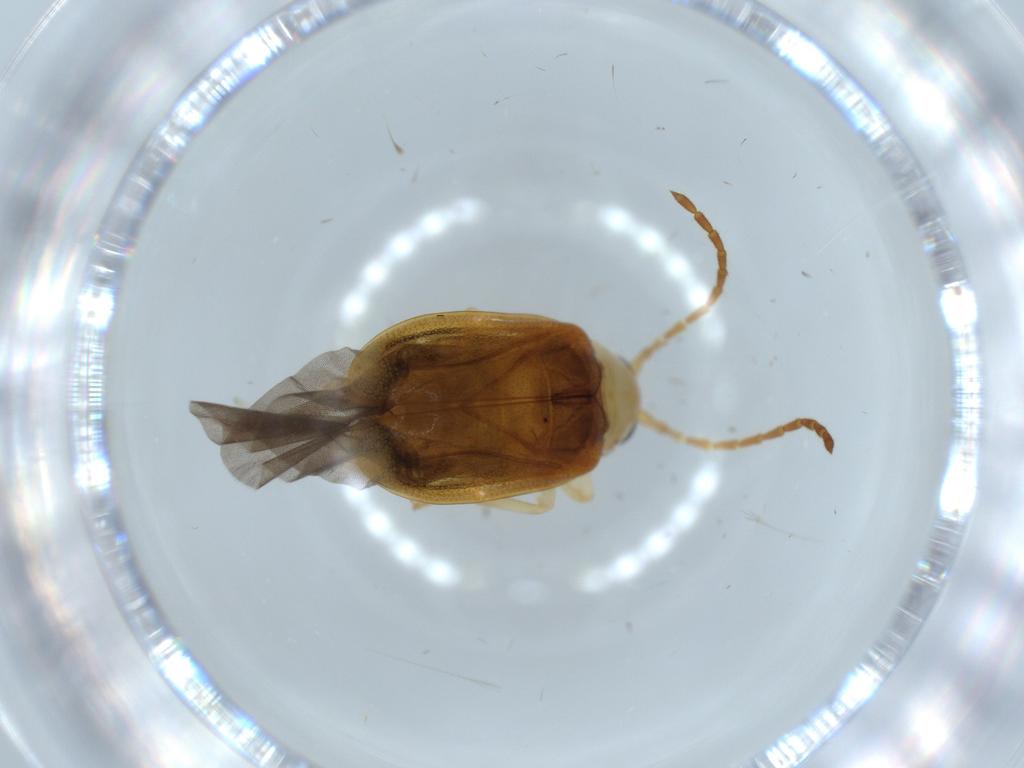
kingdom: Animalia
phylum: Arthropoda
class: Insecta
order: Coleoptera
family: Chrysomelidae
